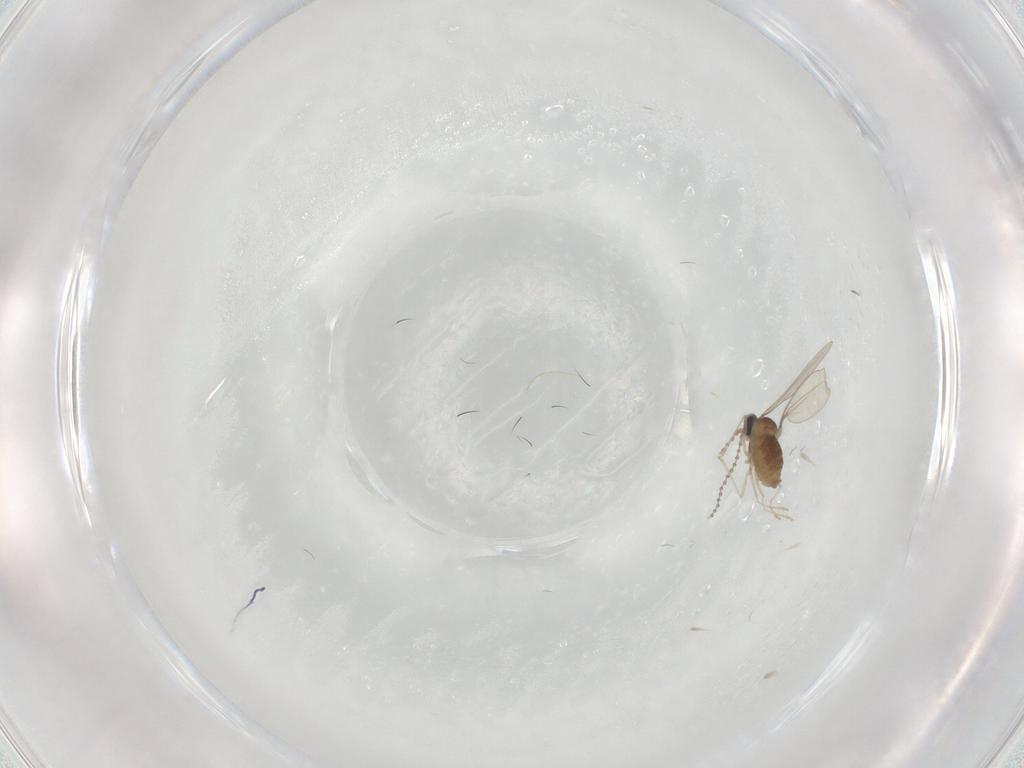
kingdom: Animalia
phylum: Arthropoda
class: Insecta
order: Diptera
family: Cecidomyiidae
